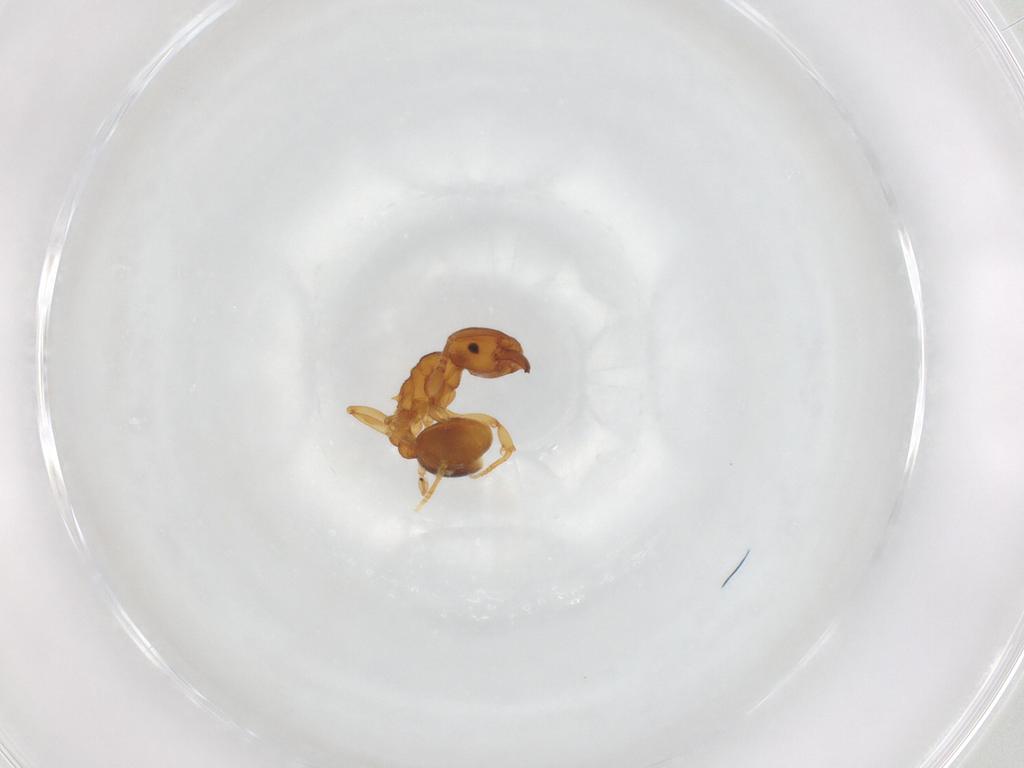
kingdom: Animalia
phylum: Arthropoda
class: Insecta
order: Hymenoptera
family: Formicidae
